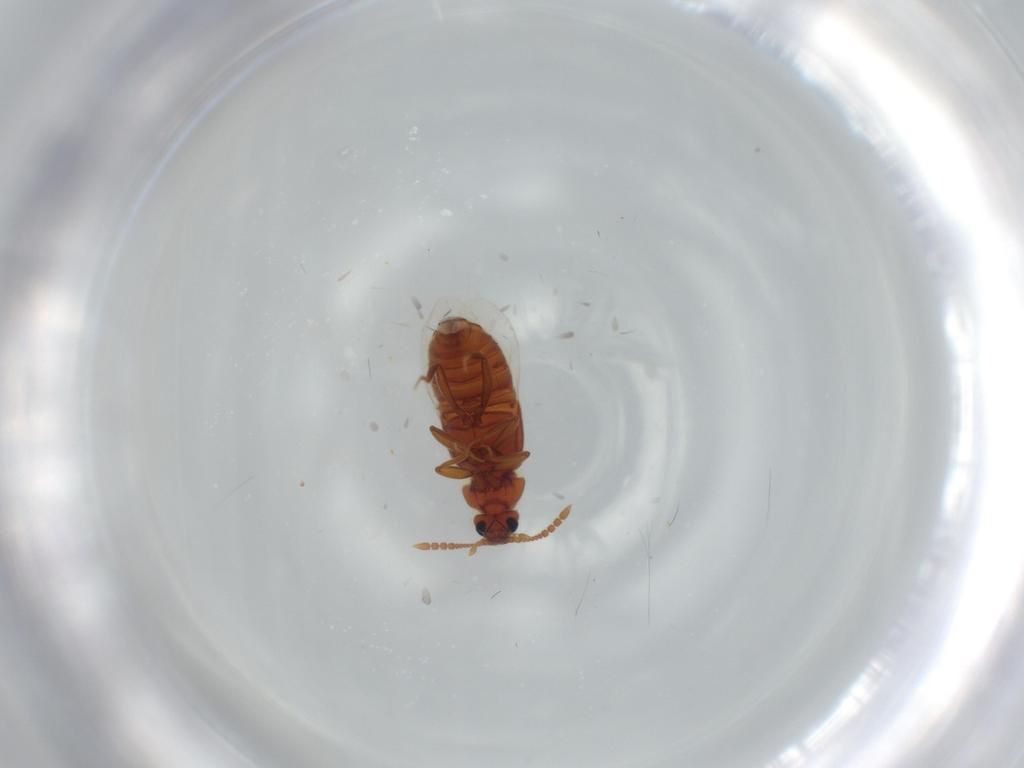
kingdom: Animalia
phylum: Arthropoda
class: Insecta
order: Coleoptera
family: Staphylinidae
